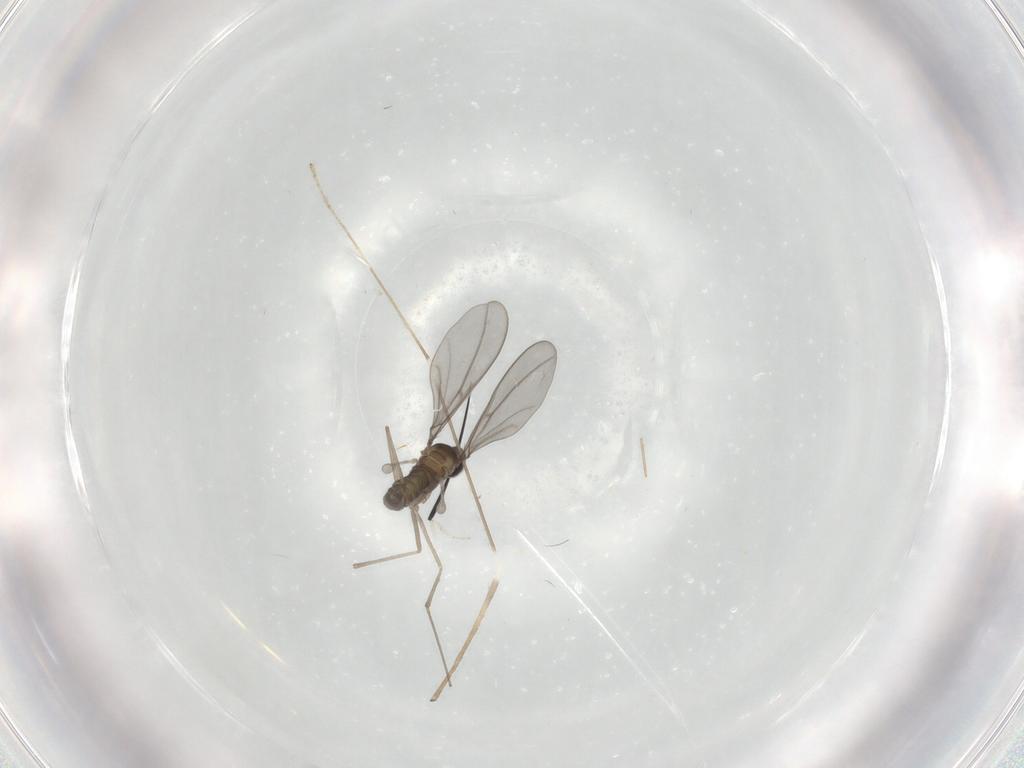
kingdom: Animalia
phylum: Arthropoda
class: Insecta
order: Diptera
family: Limoniidae
